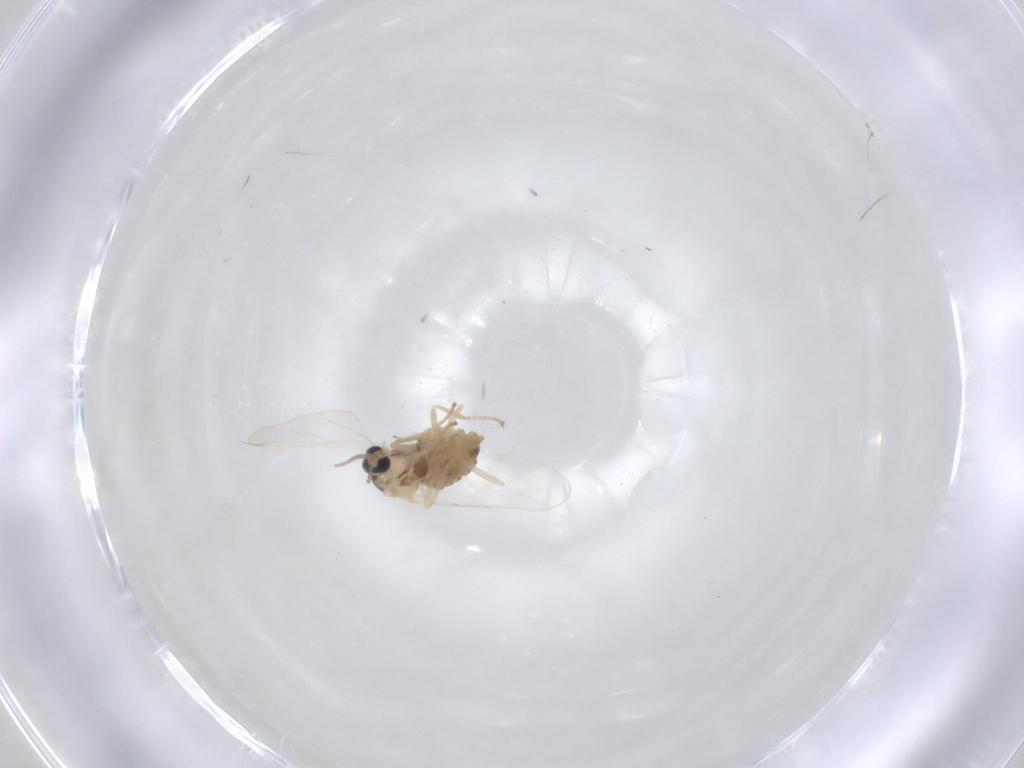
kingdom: Animalia
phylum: Arthropoda
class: Insecta
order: Diptera
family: Cecidomyiidae
